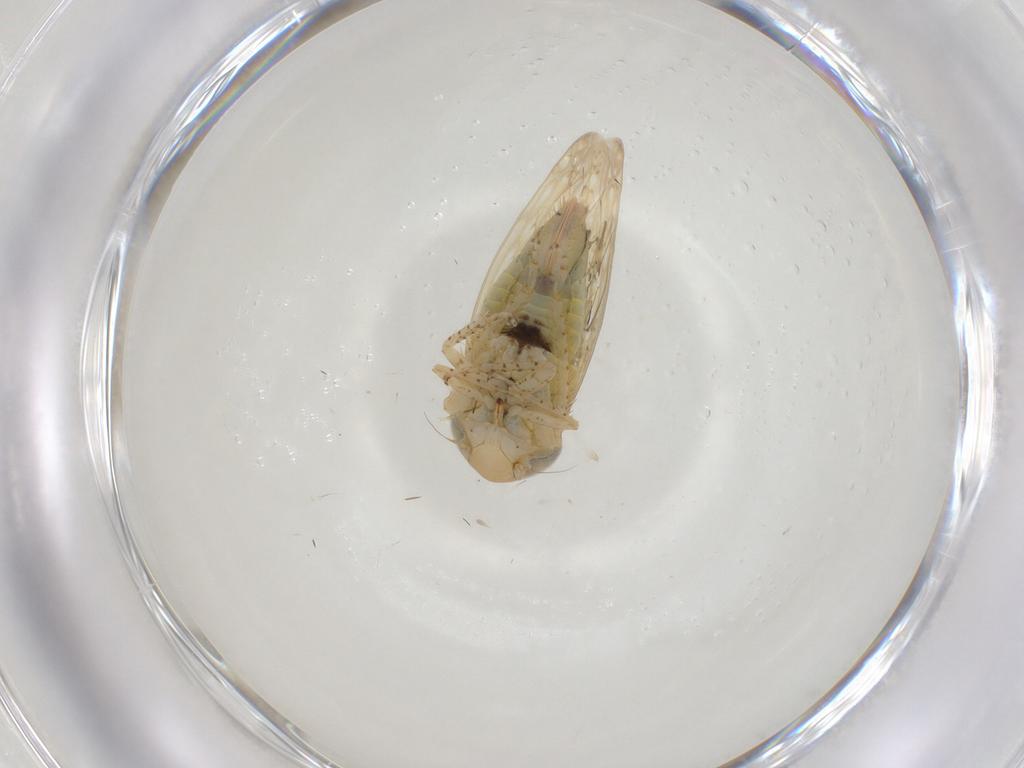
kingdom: Animalia
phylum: Arthropoda
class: Insecta
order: Hemiptera
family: Cicadellidae
